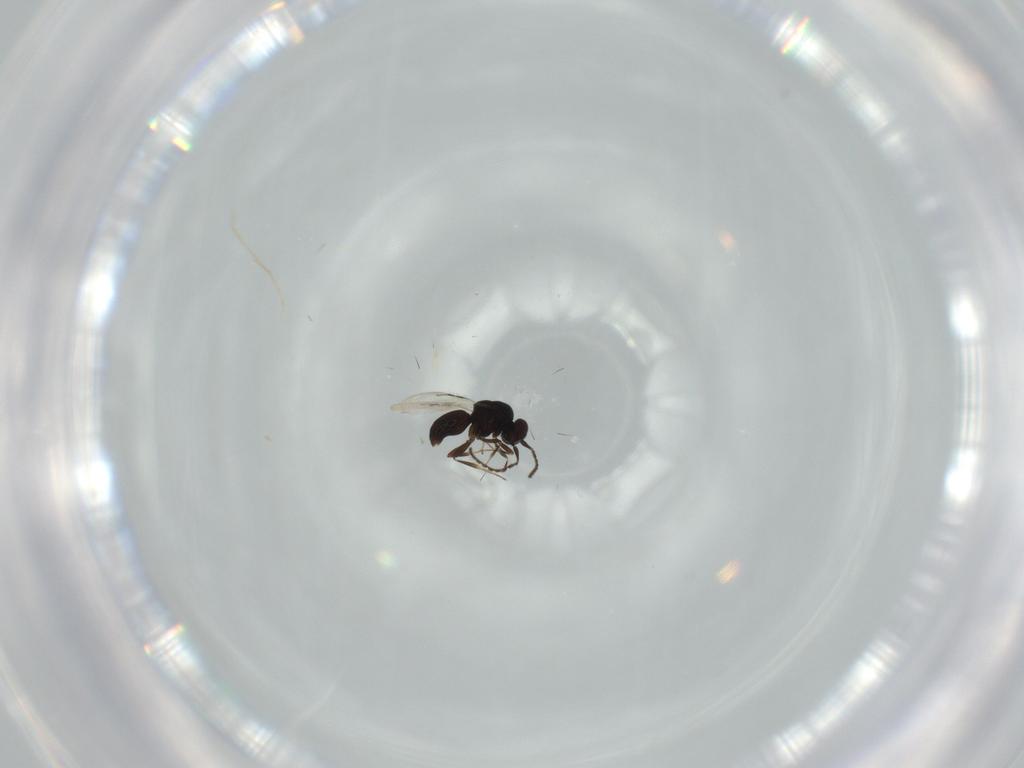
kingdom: Animalia
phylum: Arthropoda
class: Insecta
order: Hymenoptera
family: Ceraphronidae
